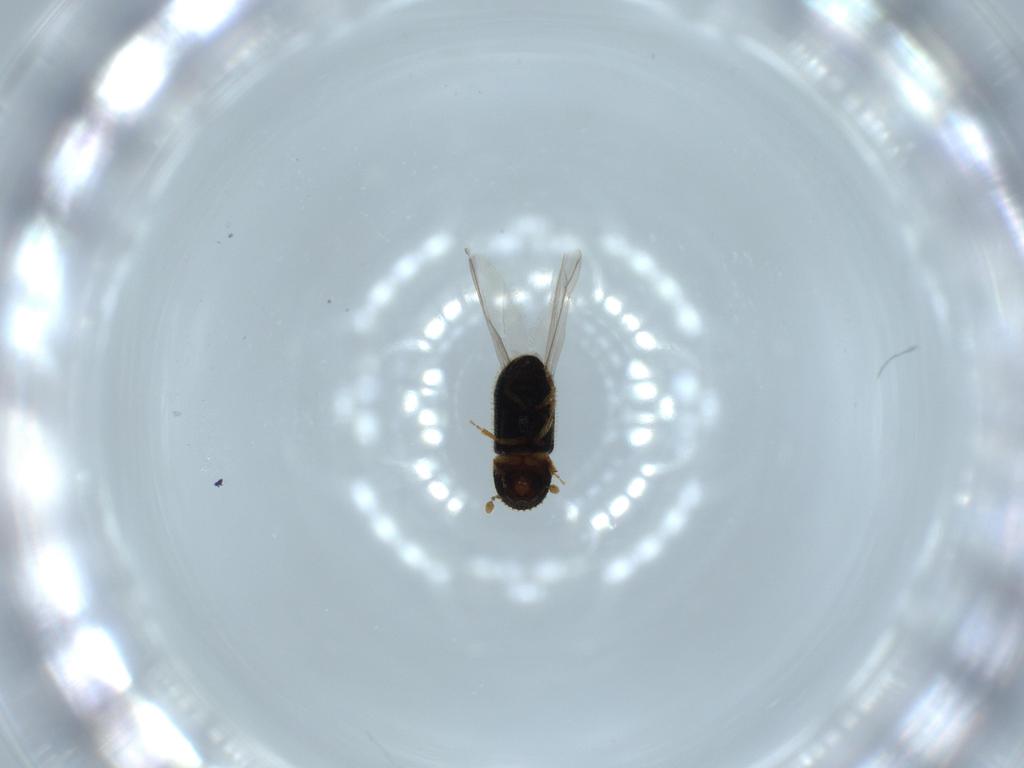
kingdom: Animalia
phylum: Arthropoda
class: Insecta
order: Coleoptera
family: Curculionidae
